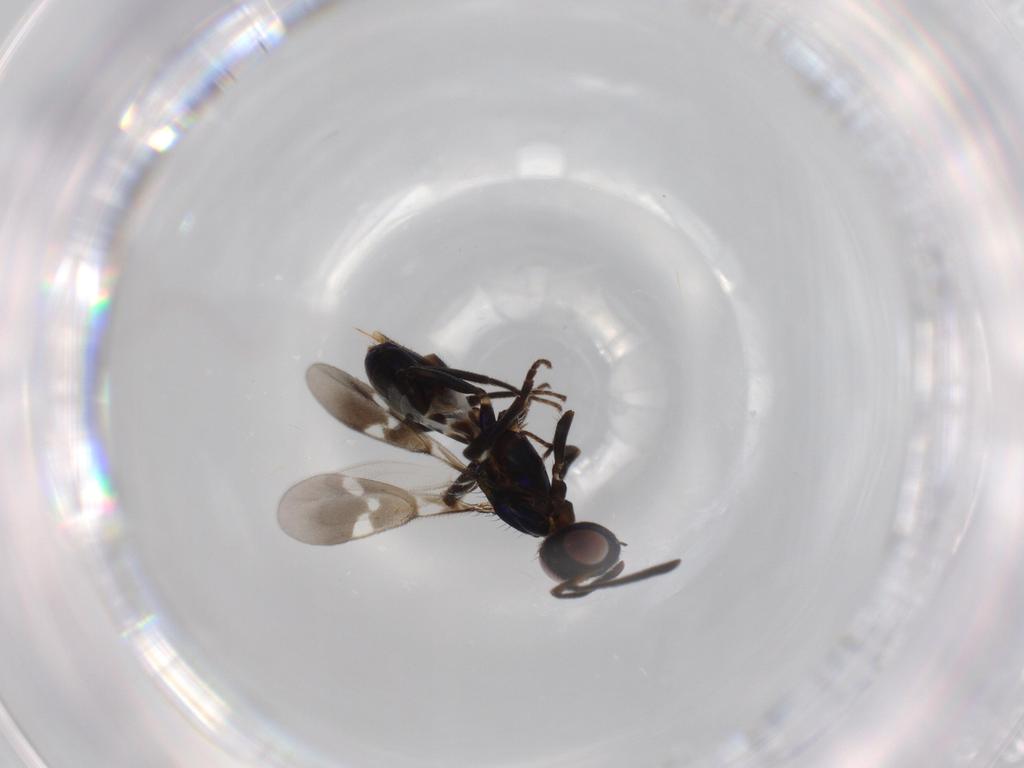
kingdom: Animalia
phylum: Arthropoda
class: Insecta
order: Hymenoptera
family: Eupelmidae
